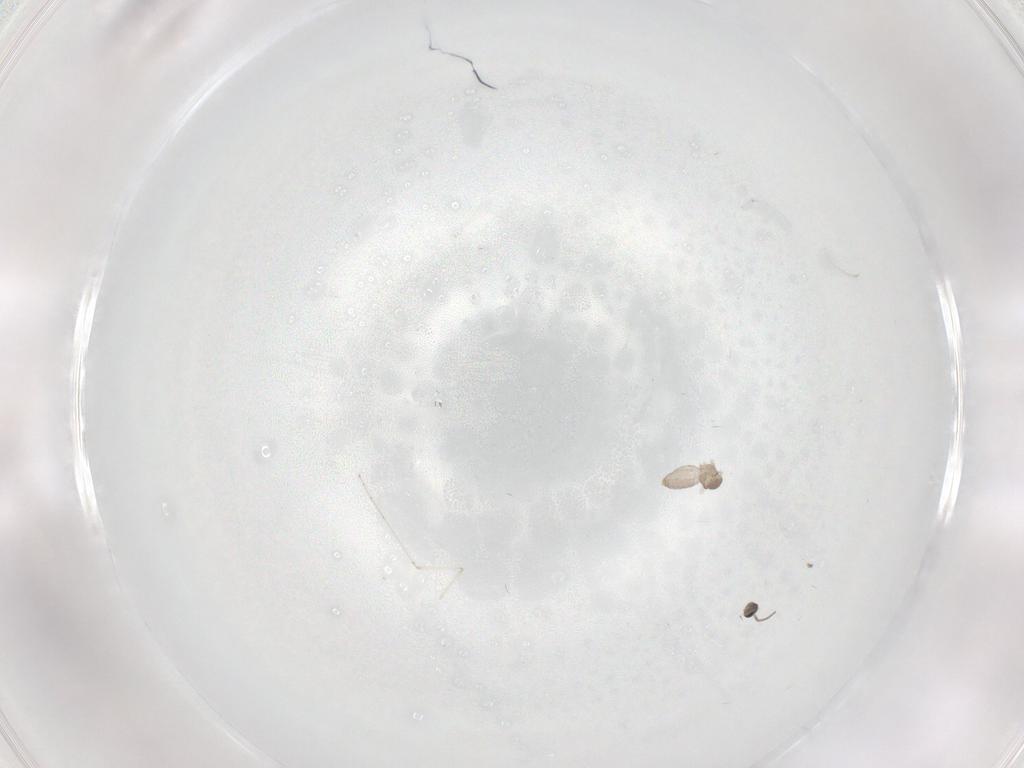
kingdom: Animalia
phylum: Arthropoda
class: Insecta
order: Diptera
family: Cecidomyiidae
